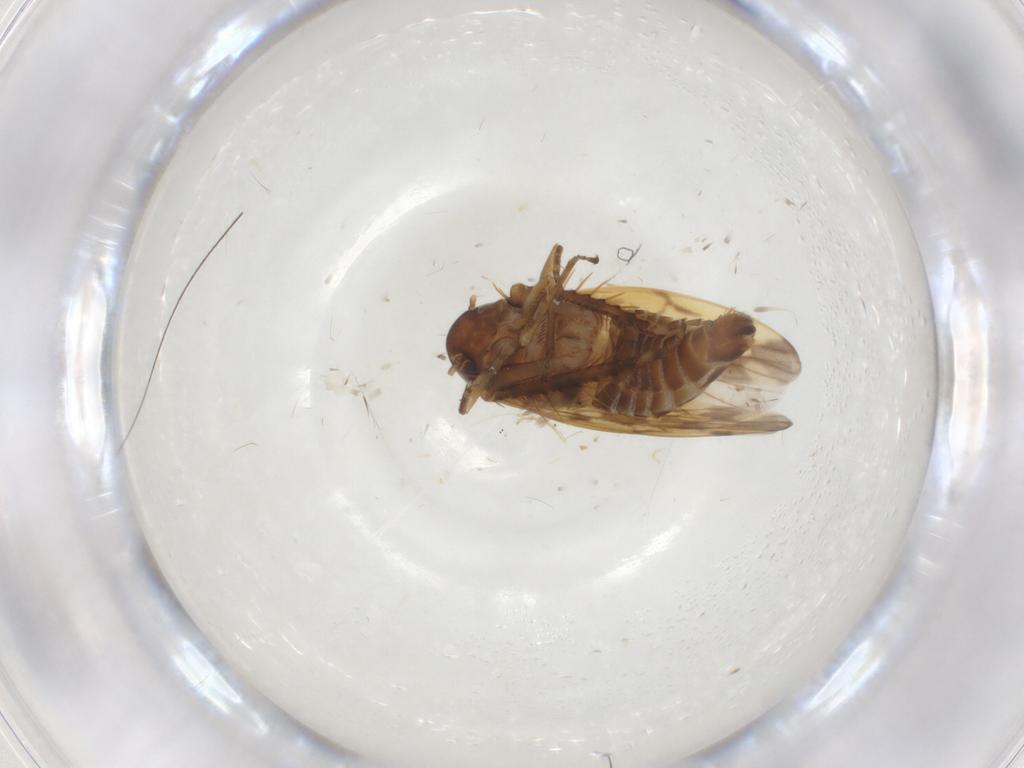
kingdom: Animalia
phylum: Arthropoda
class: Insecta
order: Hemiptera
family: Cicadellidae
